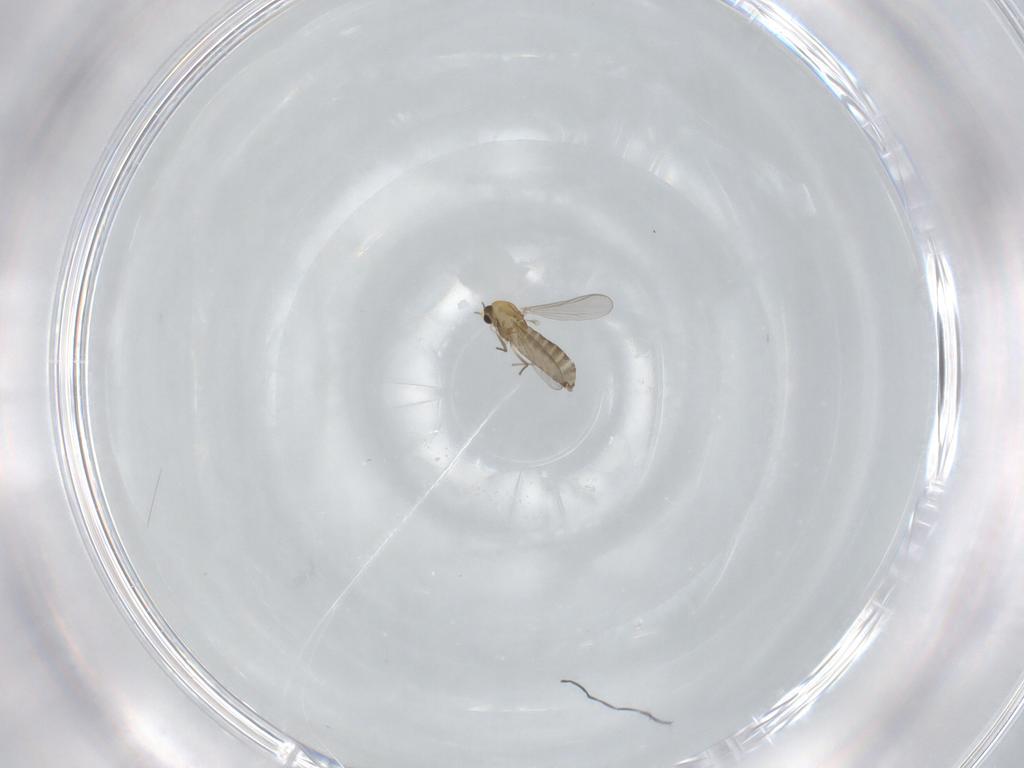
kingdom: Animalia
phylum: Arthropoda
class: Insecta
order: Diptera
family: Chironomidae
